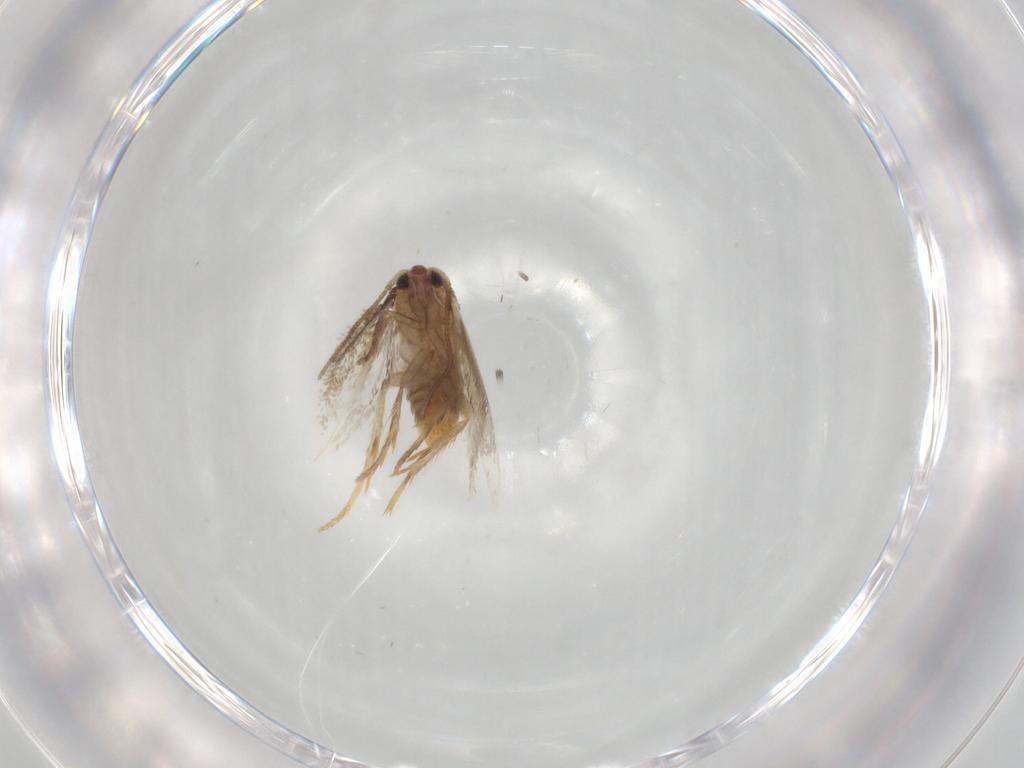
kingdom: Animalia
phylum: Arthropoda
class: Insecta
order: Lepidoptera
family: Nepticulidae
